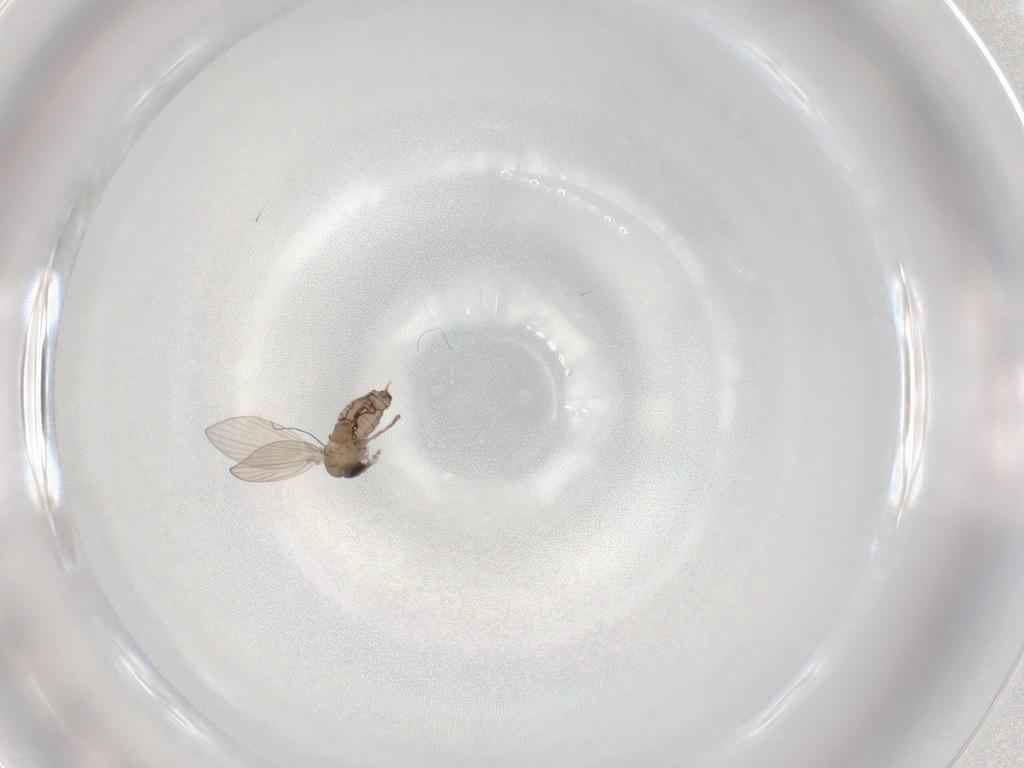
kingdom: Animalia
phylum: Arthropoda
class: Insecta
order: Diptera
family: Psychodidae
